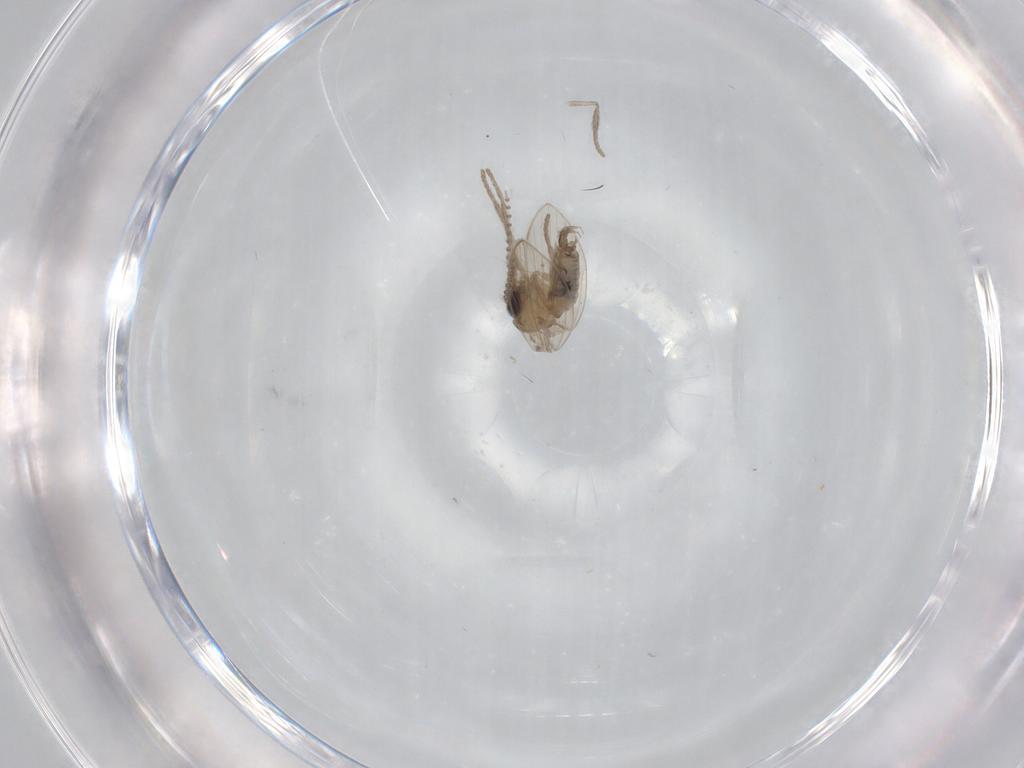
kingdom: Animalia
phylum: Arthropoda
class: Insecta
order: Diptera
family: Psychodidae
